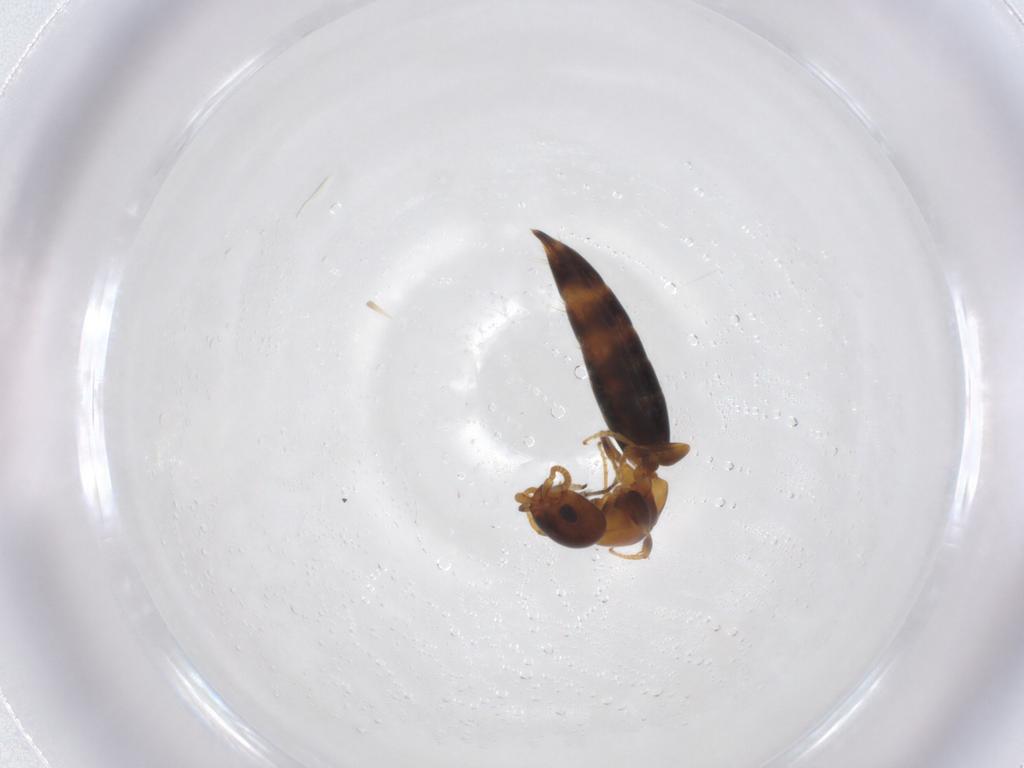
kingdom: Animalia
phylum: Arthropoda
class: Insecta
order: Hymenoptera
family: Bethylidae
